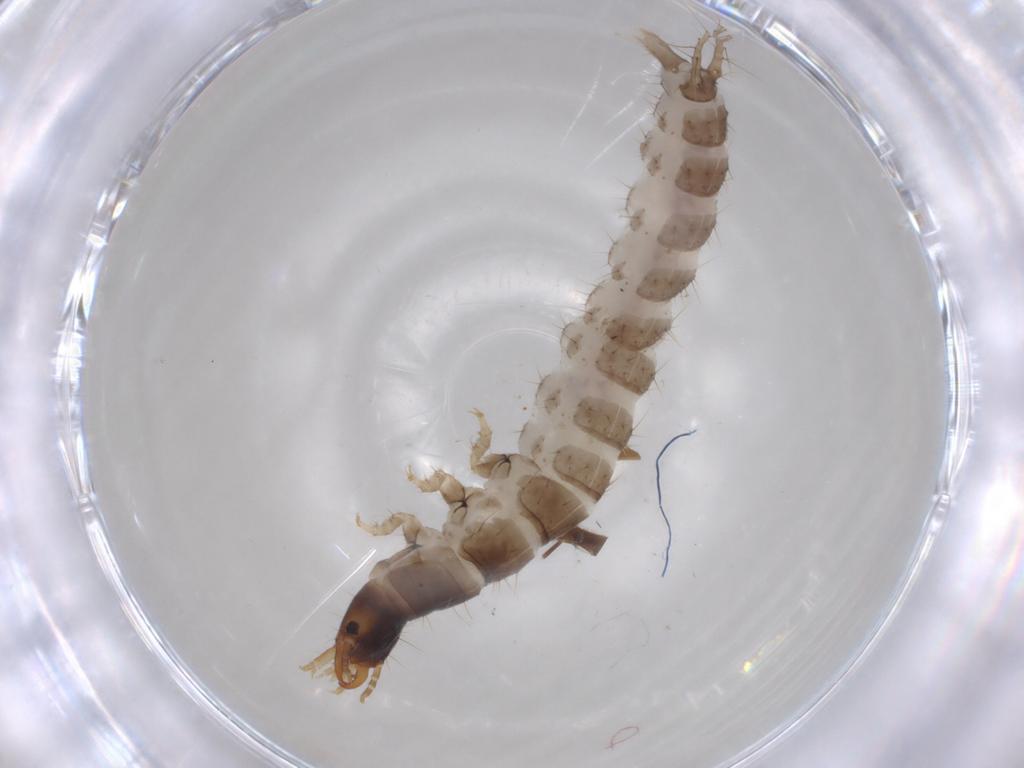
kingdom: Animalia
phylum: Arthropoda
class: Insecta
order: Coleoptera
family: Carabidae
